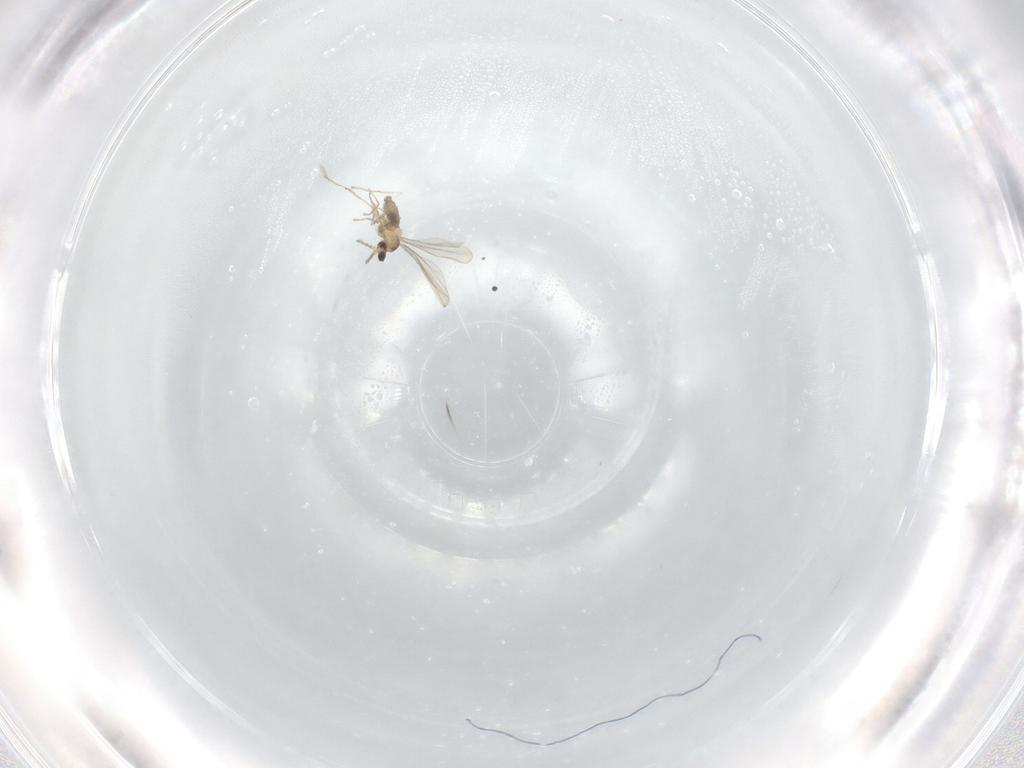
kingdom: Animalia
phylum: Arthropoda
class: Insecta
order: Diptera
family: Cecidomyiidae
